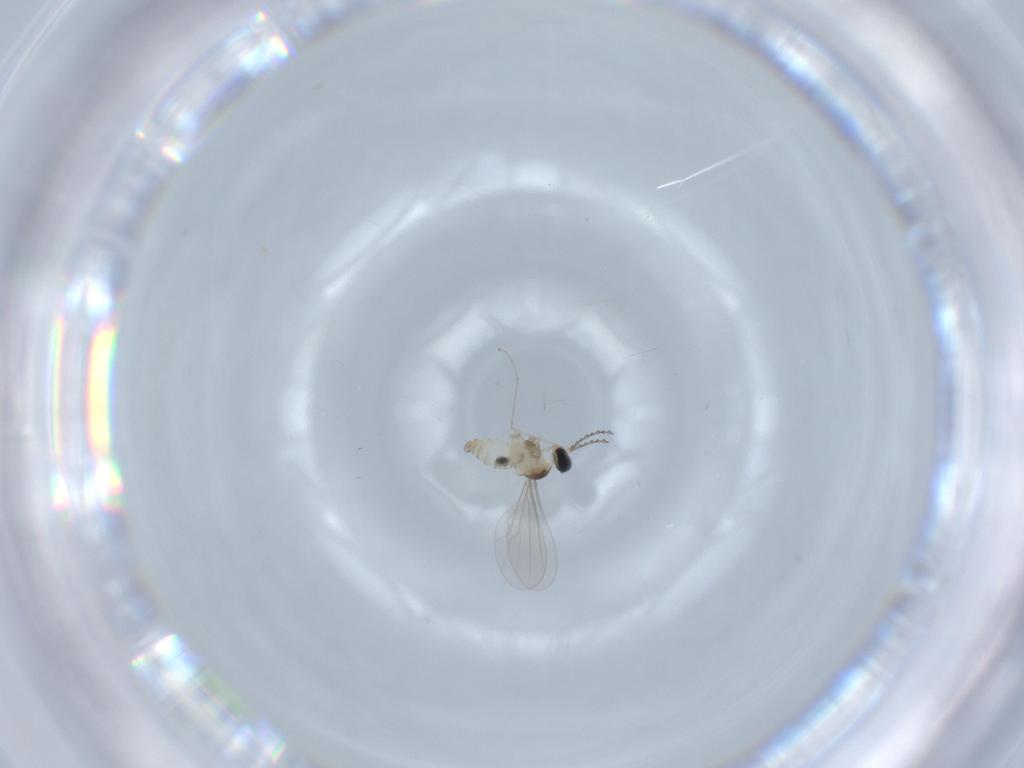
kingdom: Animalia
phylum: Arthropoda
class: Insecta
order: Diptera
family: Cecidomyiidae
